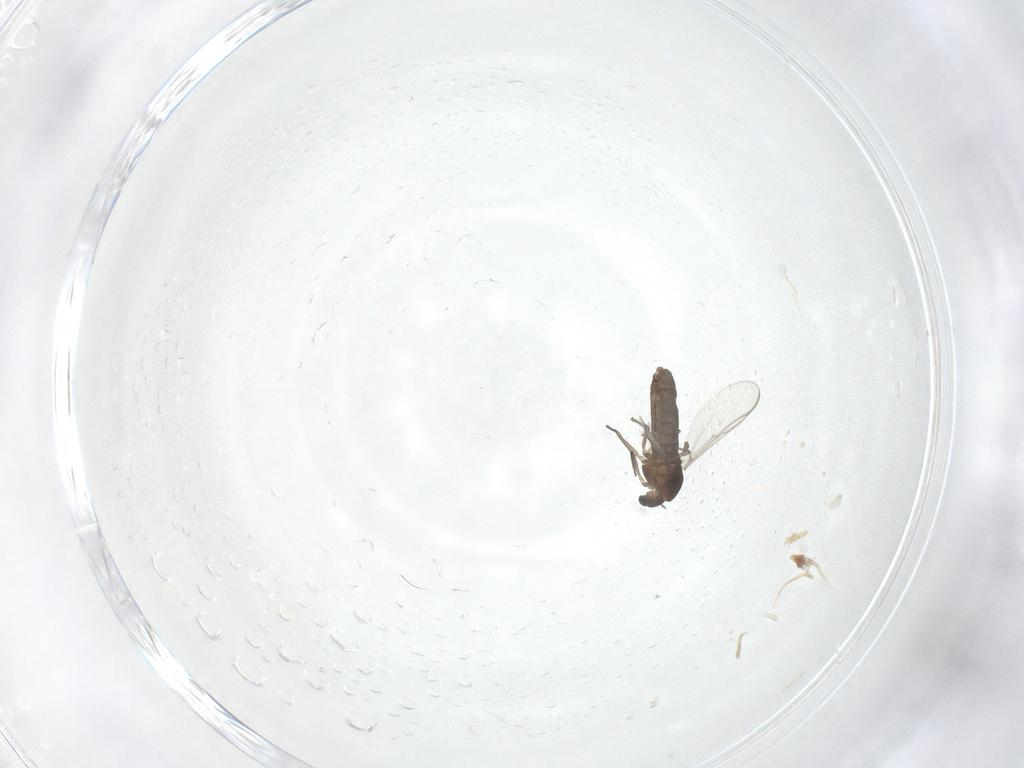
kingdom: Animalia
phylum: Arthropoda
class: Insecta
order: Diptera
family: Chironomidae
